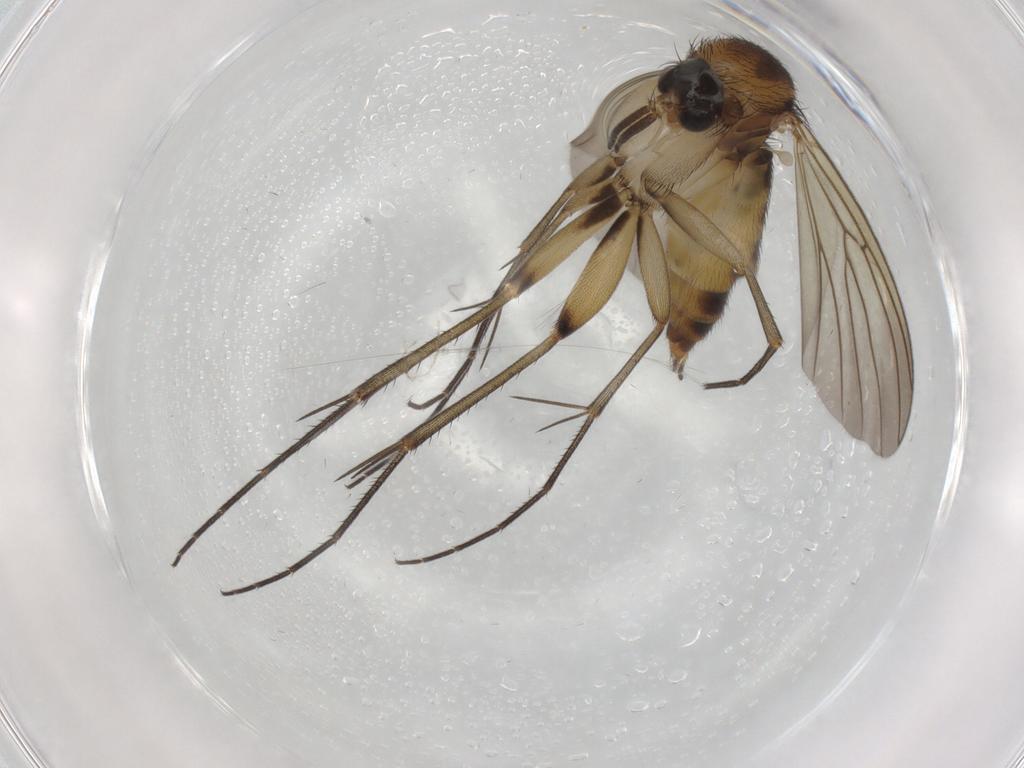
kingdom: Animalia
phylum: Arthropoda
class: Insecta
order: Diptera
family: Mycetophilidae
